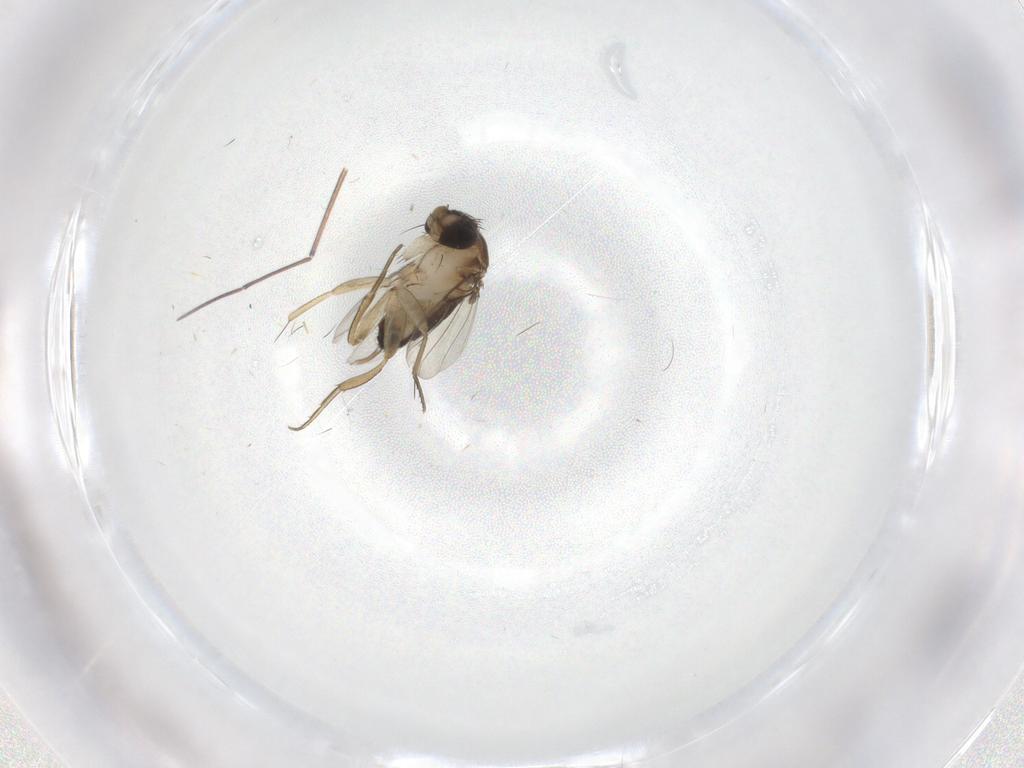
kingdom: Animalia
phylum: Arthropoda
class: Insecta
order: Diptera
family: Phoridae
